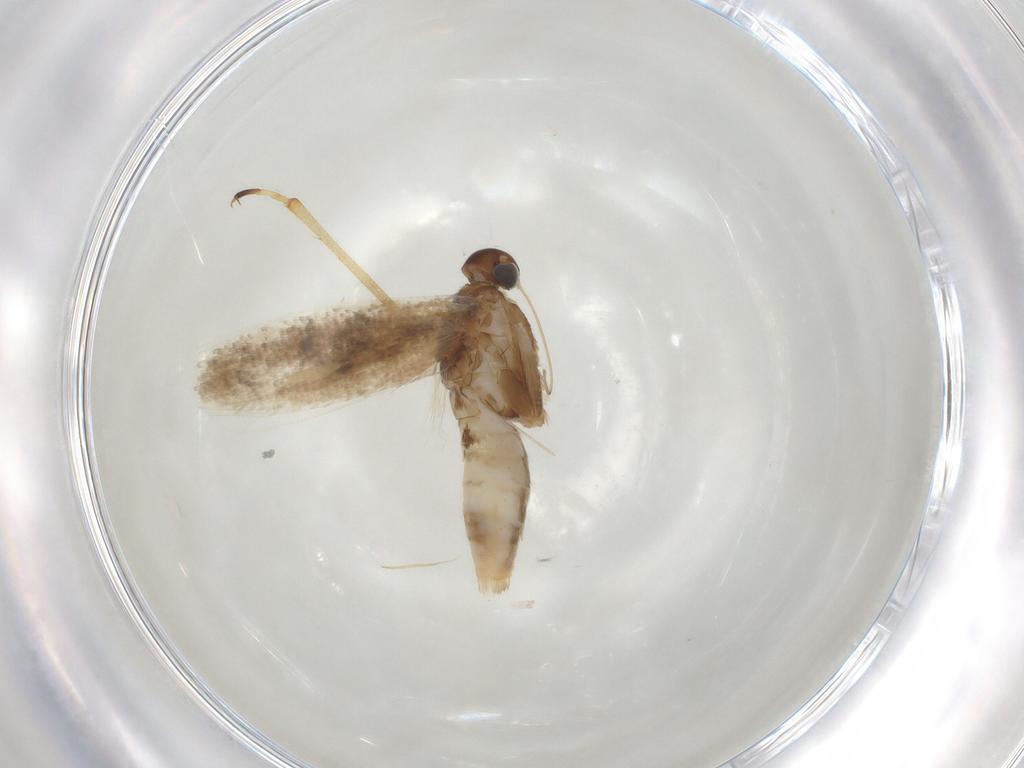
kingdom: Animalia
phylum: Arthropoda
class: Insecta
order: Lepidoptera
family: Gelechiidae
